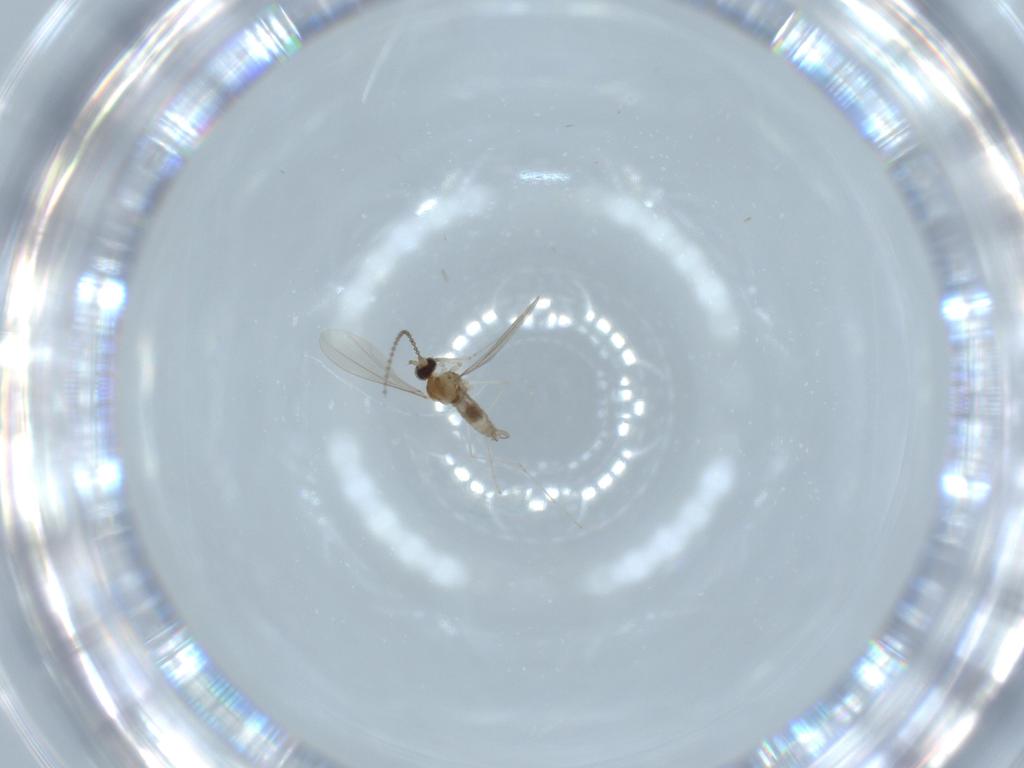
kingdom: Animalia
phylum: Arthropoda
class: Insecta
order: Diptera
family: Cecidomyiidae
